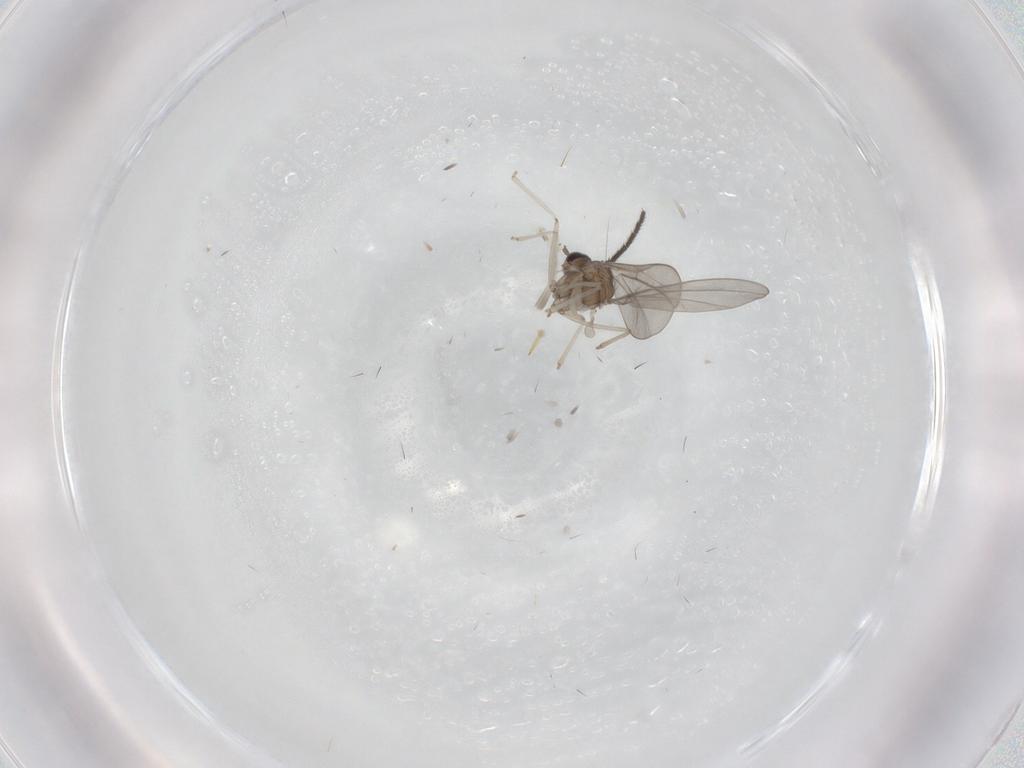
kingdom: Animalia
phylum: Arthropoda
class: Insecta
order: Diptera
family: Cecidomyiidae
